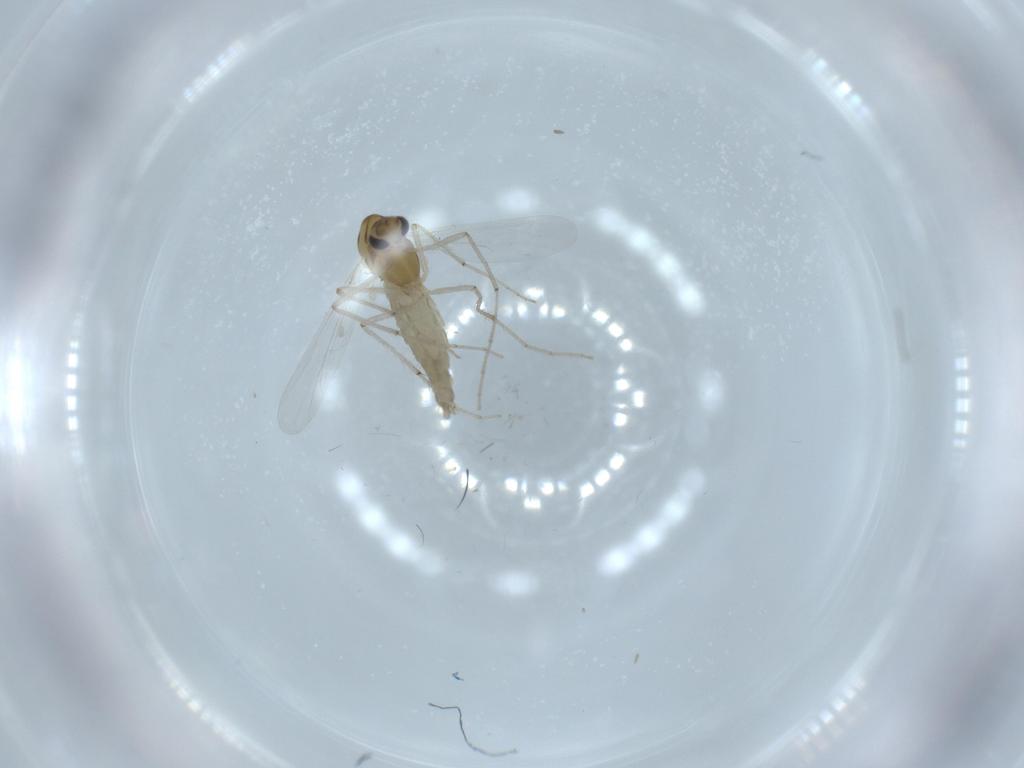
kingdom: Animalia
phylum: Arthropoda
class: Insecta
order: Diptera
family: Chironomidae
